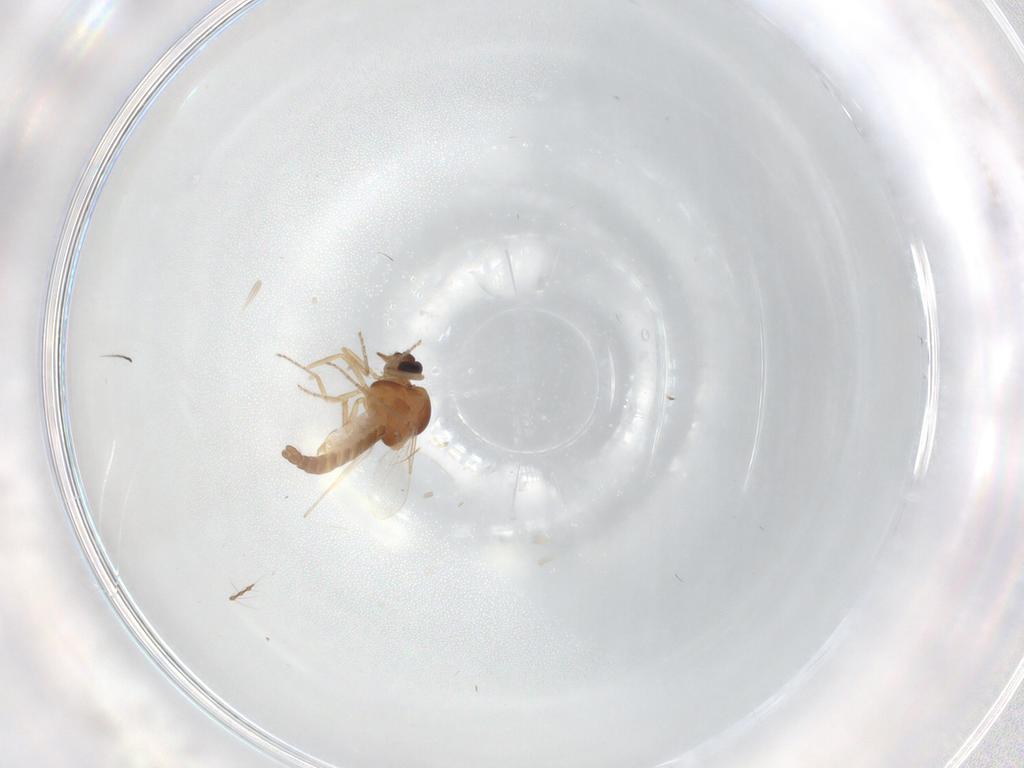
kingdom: Animalia
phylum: Arthropoda
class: Insecta
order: Diptera
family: Ceratopogonidae
